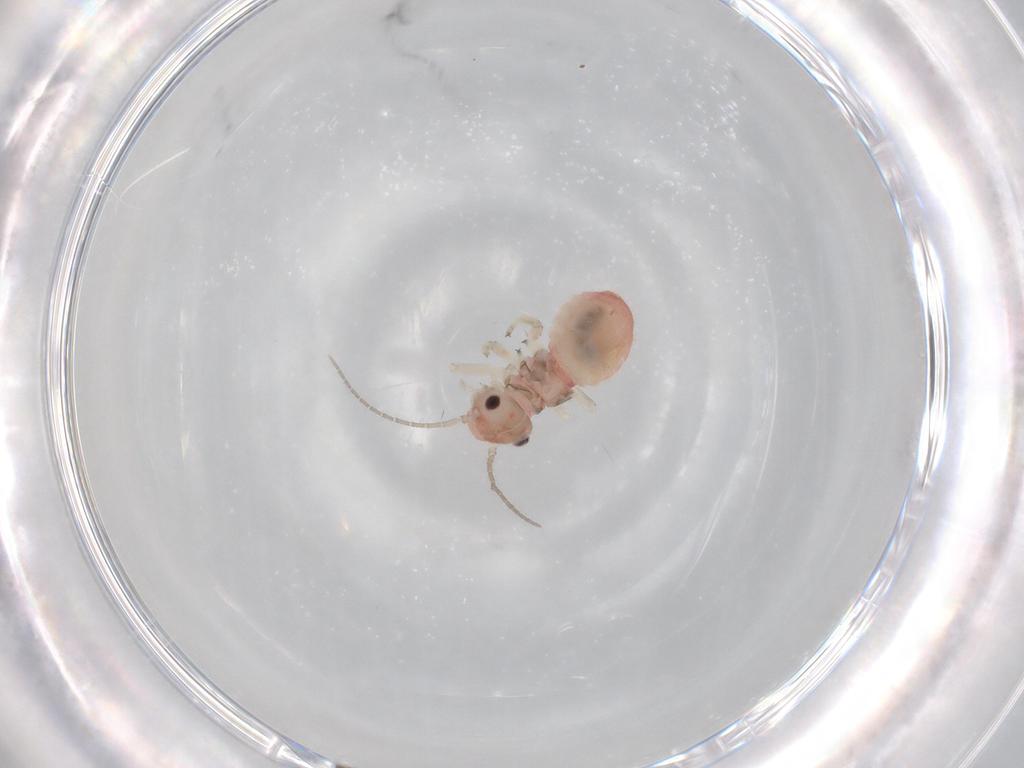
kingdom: Animalia
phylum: Arthropoda
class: Insecta
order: Psocodea
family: Amphipsocidae
